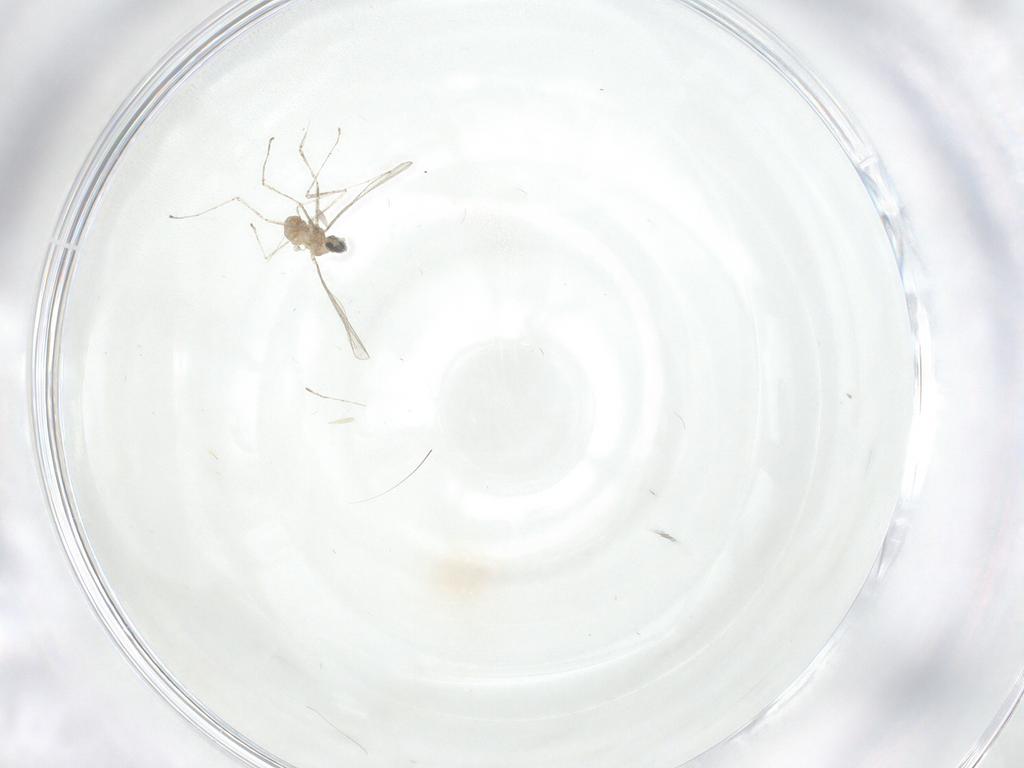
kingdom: Animalia
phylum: Arthropoda
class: Insecta
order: Diptera
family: Cecidomyiidae
